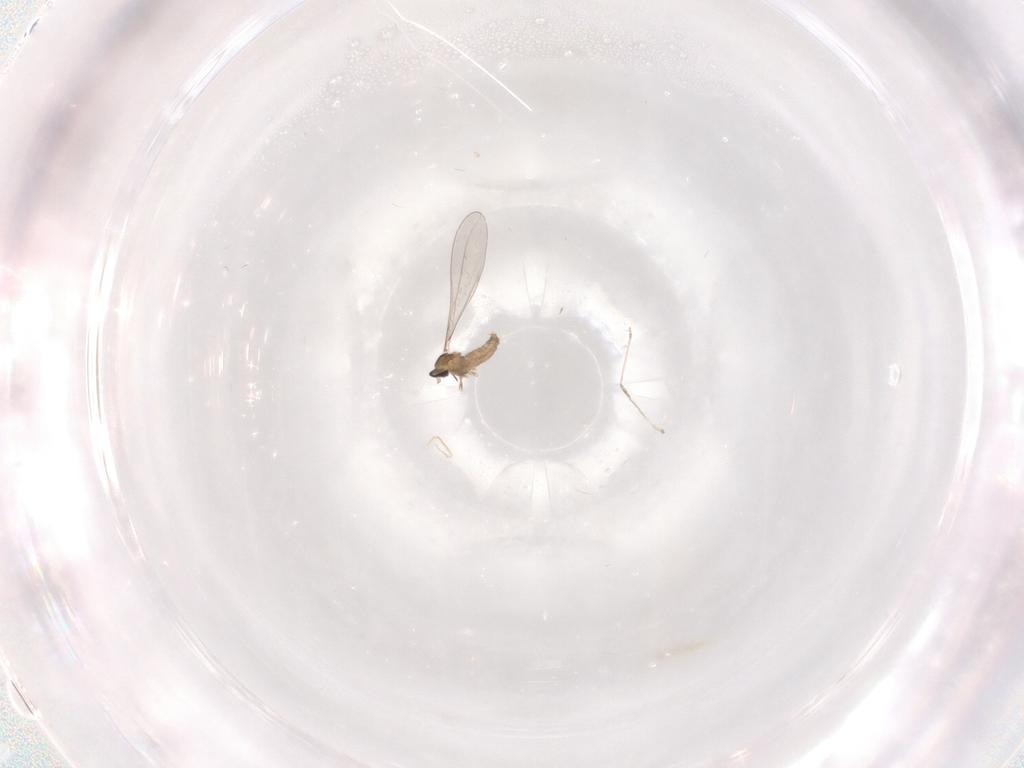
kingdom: Animalia
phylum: Arthropoda
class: Insecta
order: Diptera
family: Cecidomyiidae
